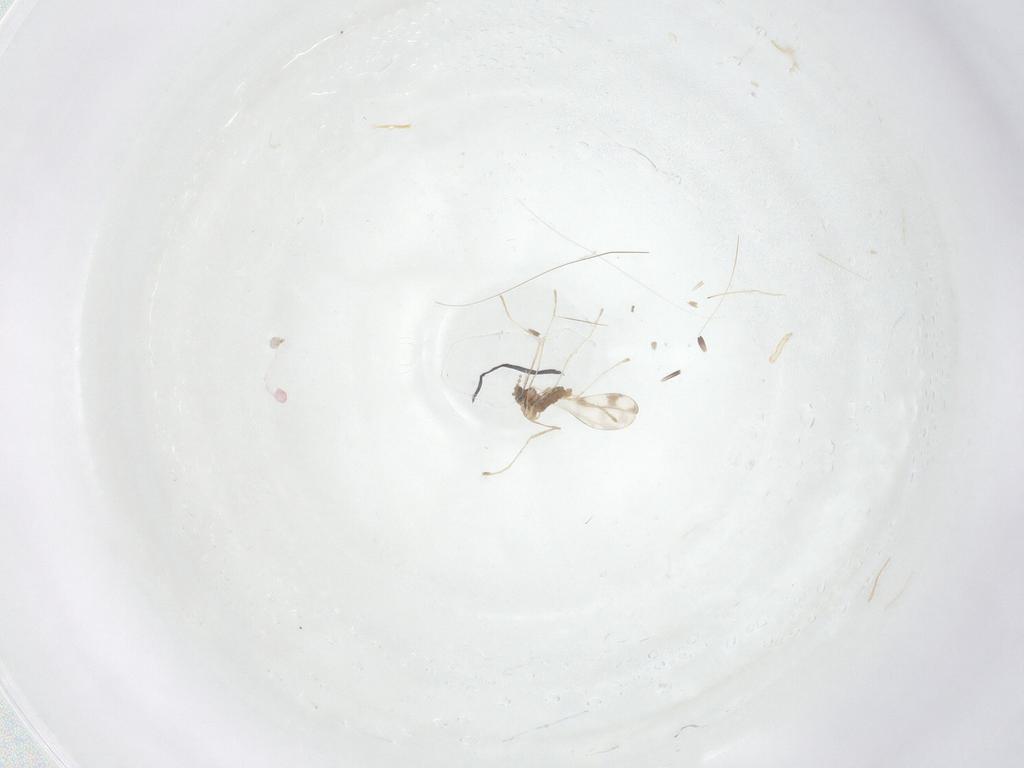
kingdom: Animalia
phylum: Arthropoda
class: Insecta
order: Diptera
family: Cecidomyiidae
